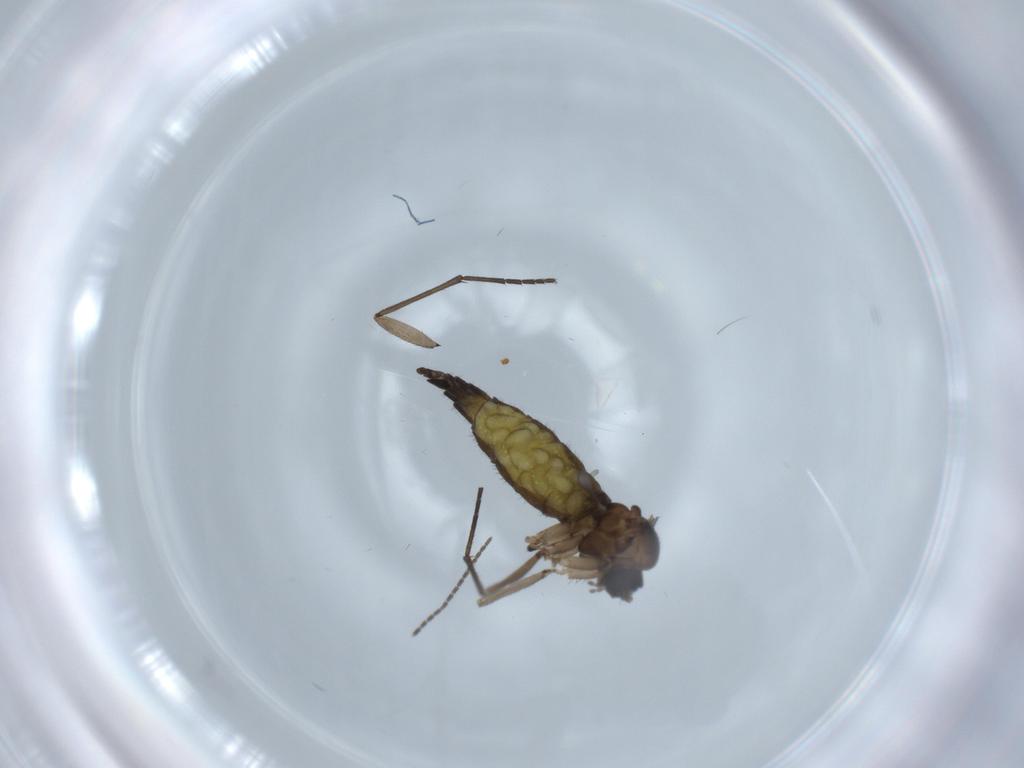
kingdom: Animalia
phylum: Arthropoda
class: Insecta
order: Diptera
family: Sciaridae
